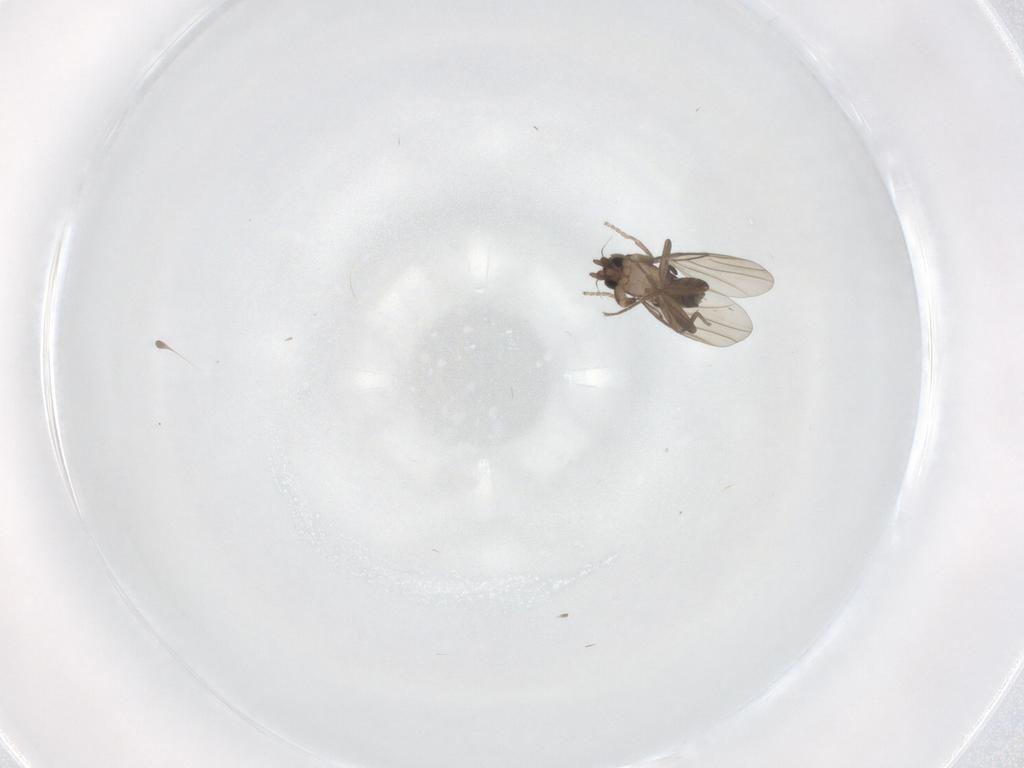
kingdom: Animalia
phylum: Arthropoda
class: Insecta
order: Diptera
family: Sarcophagidae
